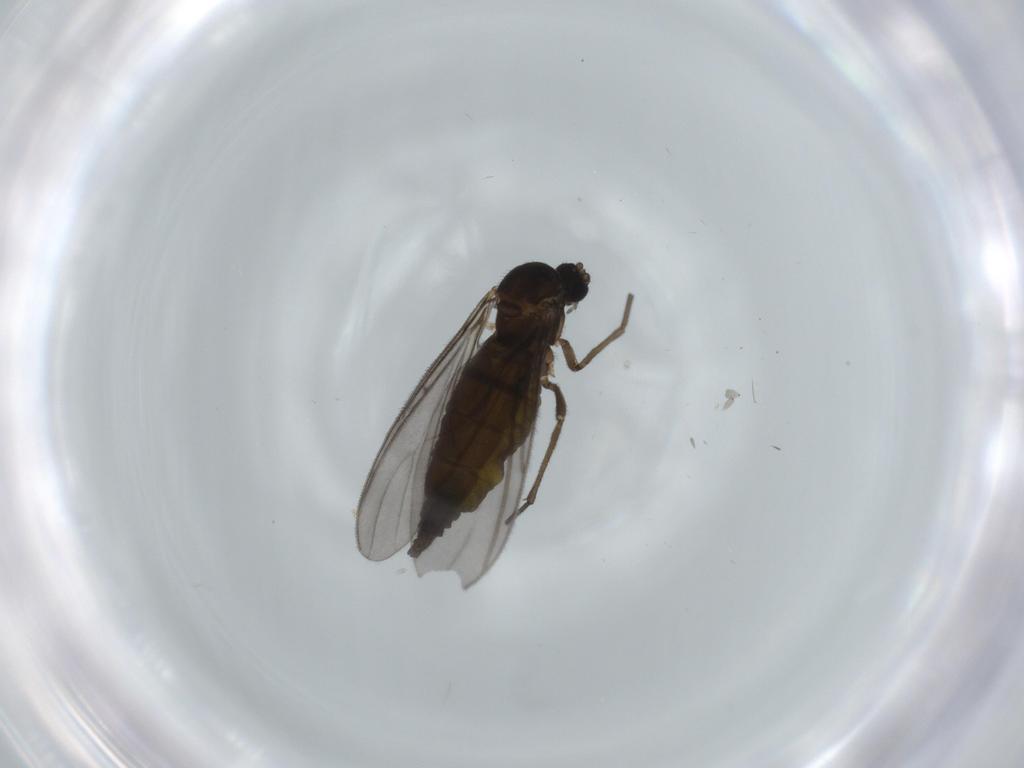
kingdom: Animalia
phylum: Arthropoda
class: Insecta
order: Diptera
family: Sciaridae
